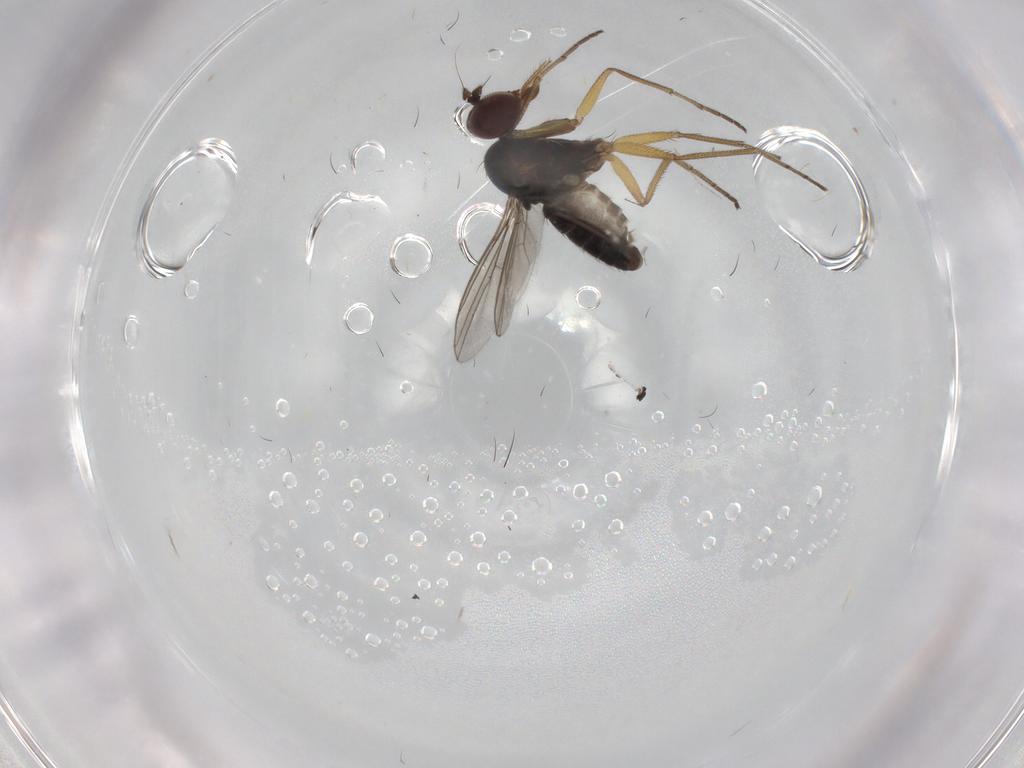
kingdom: Animalia
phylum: Arthropoda
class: Insecta
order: Diptera
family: Dolichopodidae
